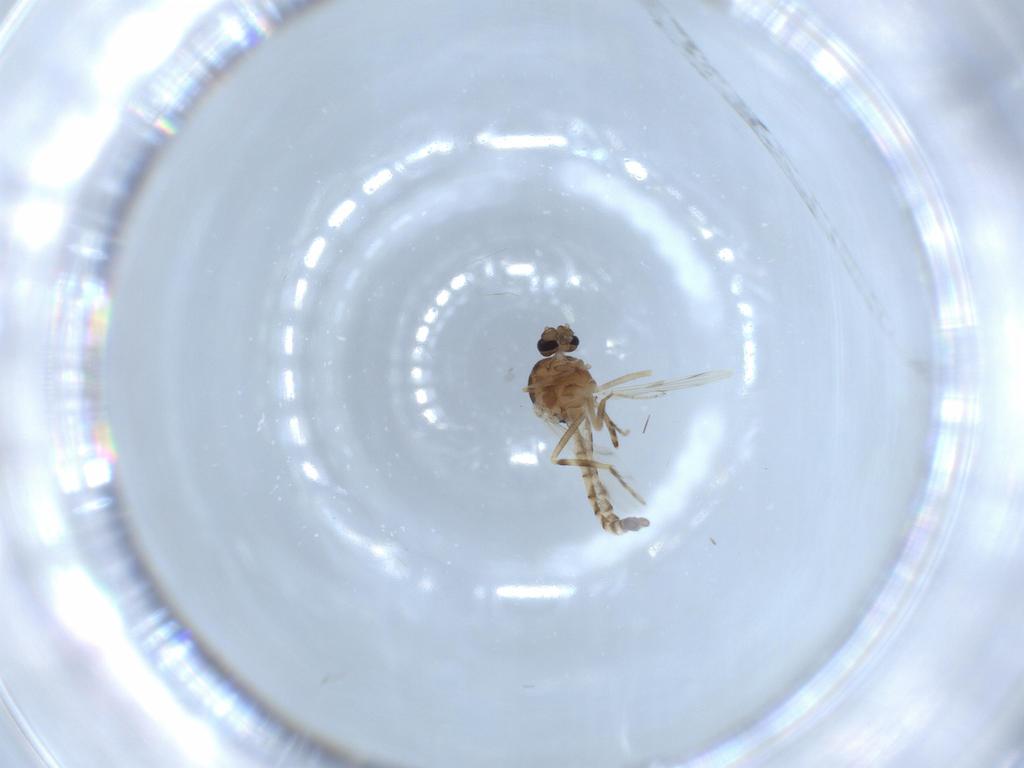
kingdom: Animalia
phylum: Arthropoda
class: Insecta
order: Diptera
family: Ceratopogonidae
